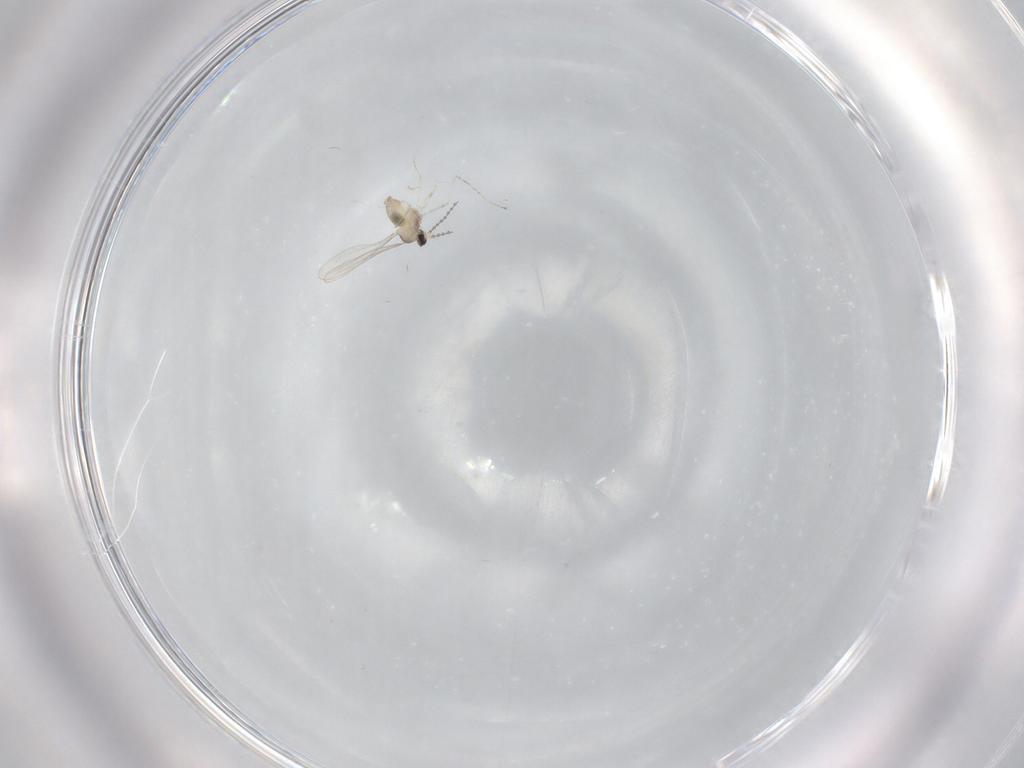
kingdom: Animalia
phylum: Arthropoda
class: Insecta
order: Diptera
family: Cecidomyiidae
